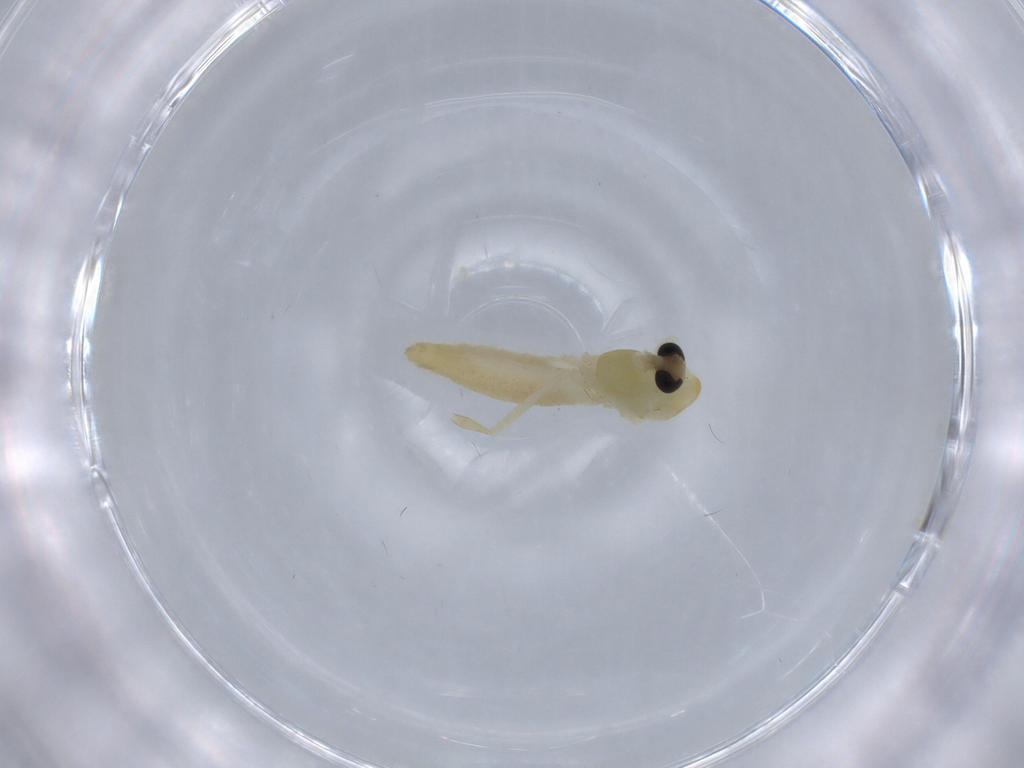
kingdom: Animalia
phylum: Arthropoda
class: Insecta
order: Diptera
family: Chironomidae
